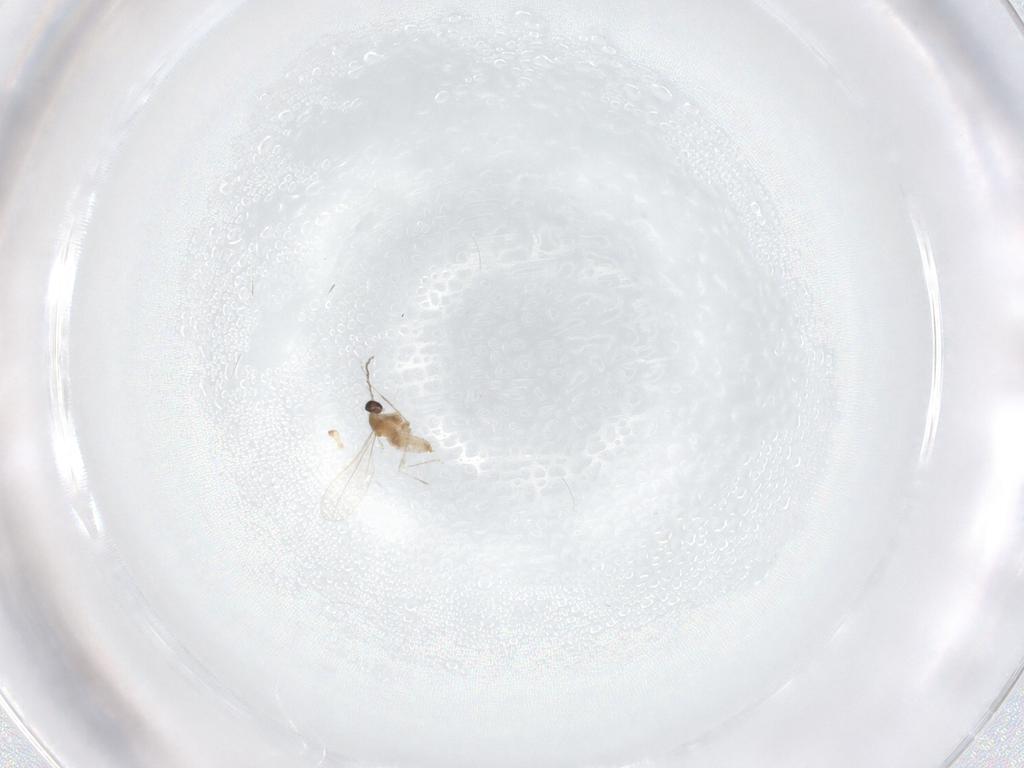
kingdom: Animalia
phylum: Arthropoda
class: Insecta
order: Diptera
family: Cecidomyiidae
